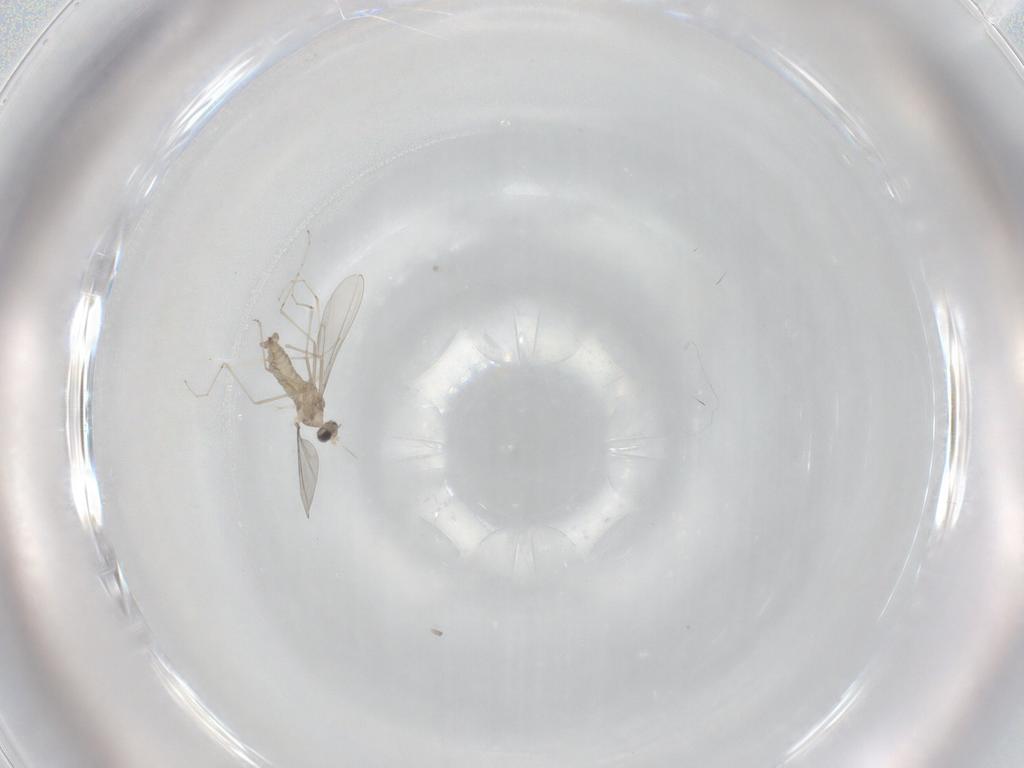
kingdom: Animalia
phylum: Arthropoda
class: Insecta
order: Diptera
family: Cecidomyiidae
